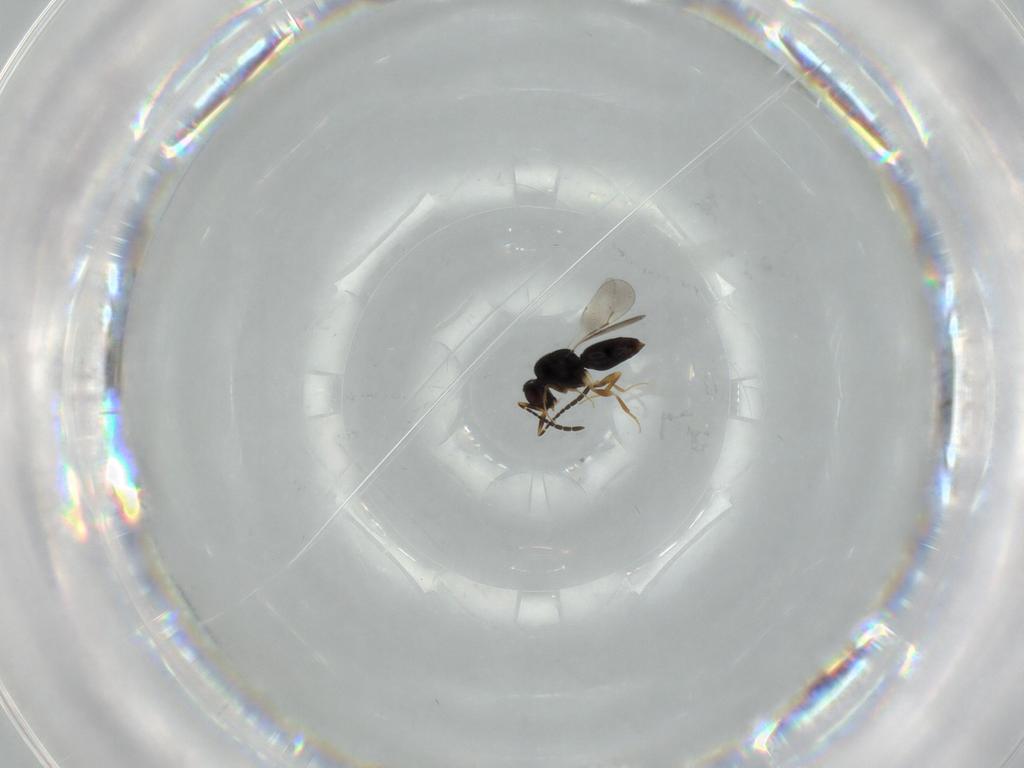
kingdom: Animalia
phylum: Arthropoda
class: Insecta
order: Hymenoptera
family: Ceraphronidae
